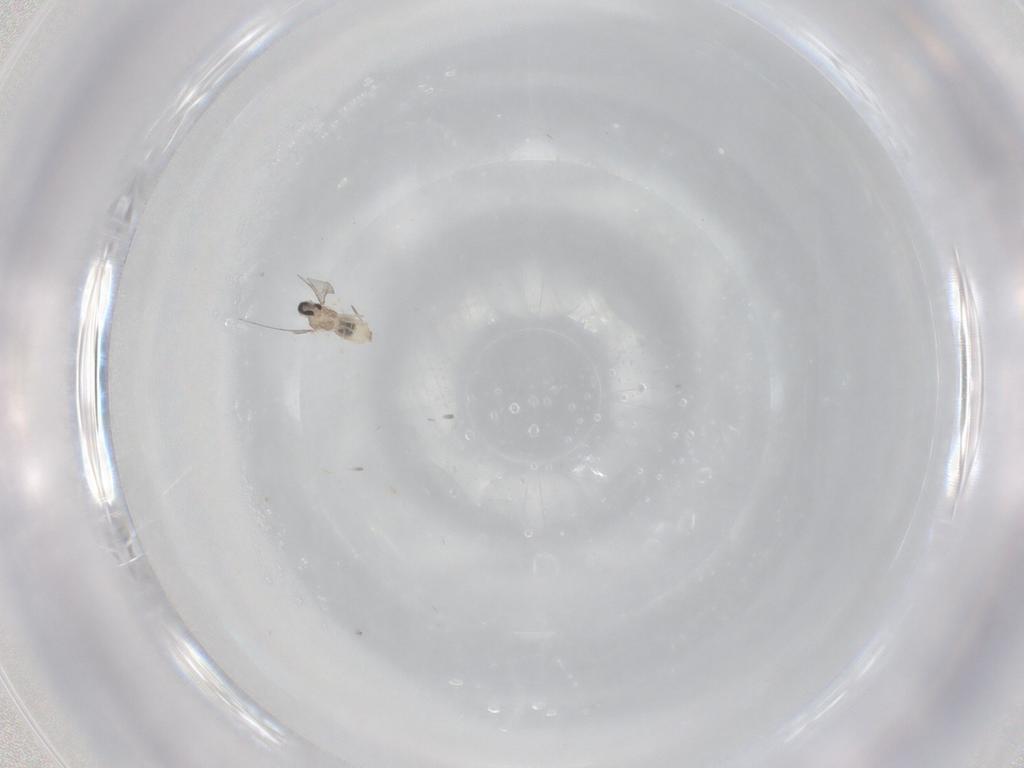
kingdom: Animalia
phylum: Arthropoda
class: Insecta
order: Diptera
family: Cecidomyiidae
